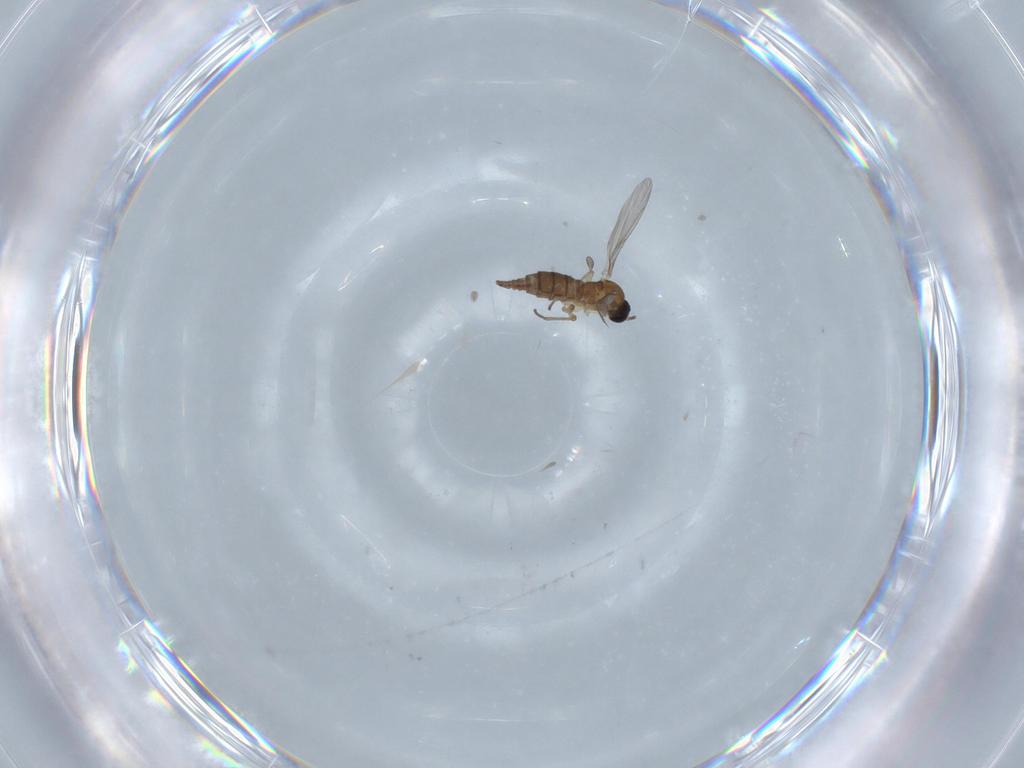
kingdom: Animalia
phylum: Arthropoda
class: Insecta
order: Diptera
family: Sciaridae
